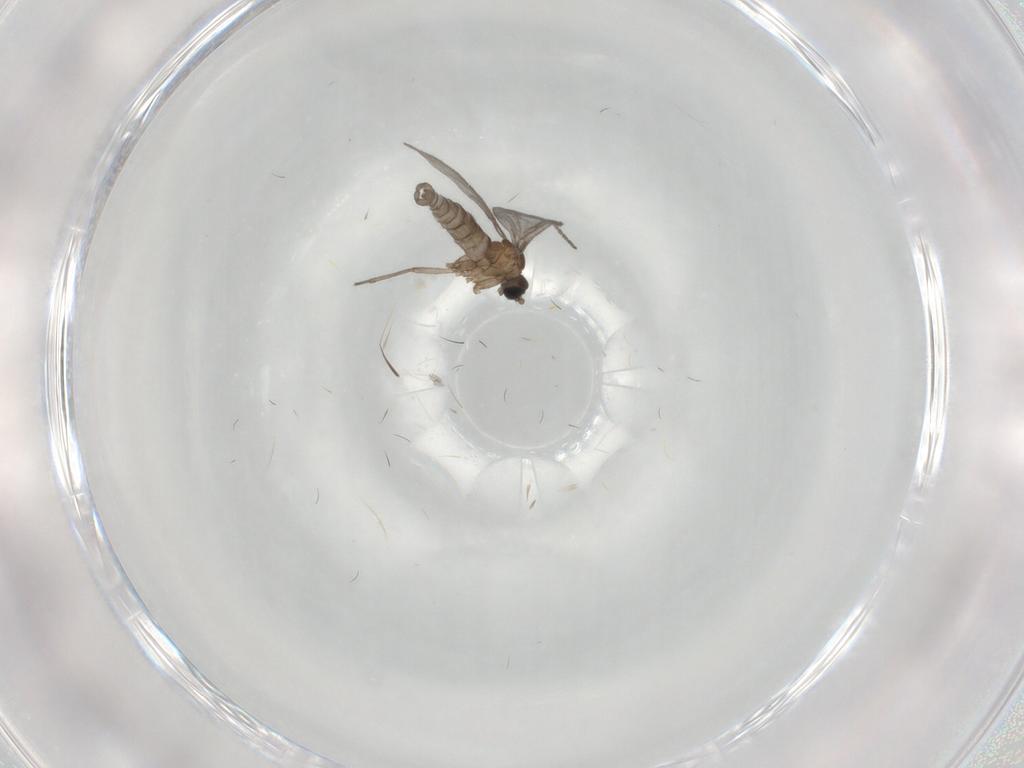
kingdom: Animalia
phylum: Arthropoda
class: Insecta
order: Diptera
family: Sciaridae
